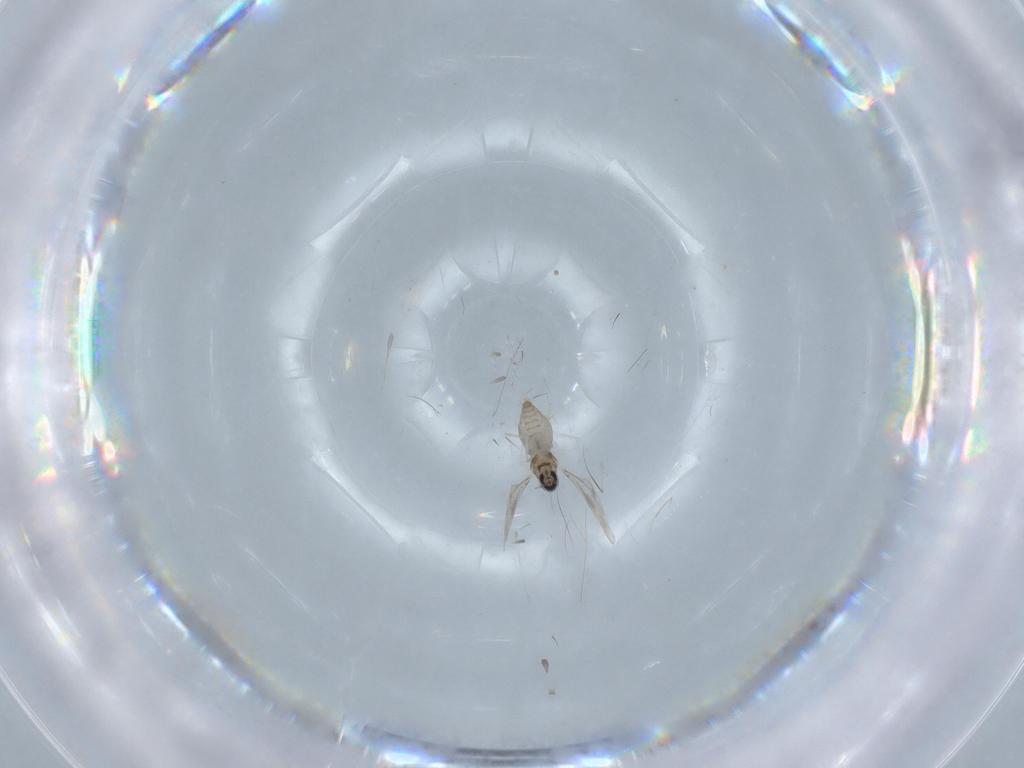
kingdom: Animalia
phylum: Arthropoda
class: Insecta
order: Diptera
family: Cecidomyiidae
